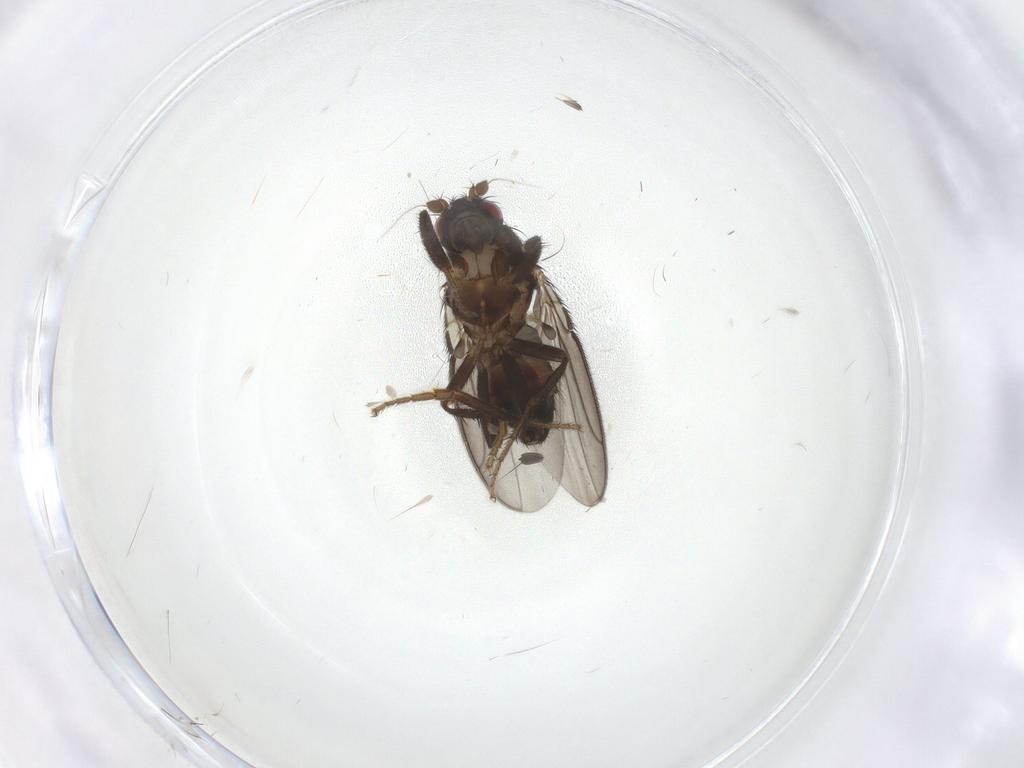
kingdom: Animalia
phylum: Arthropoda
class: Insecta
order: Diptera
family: Sphaeroceridae
